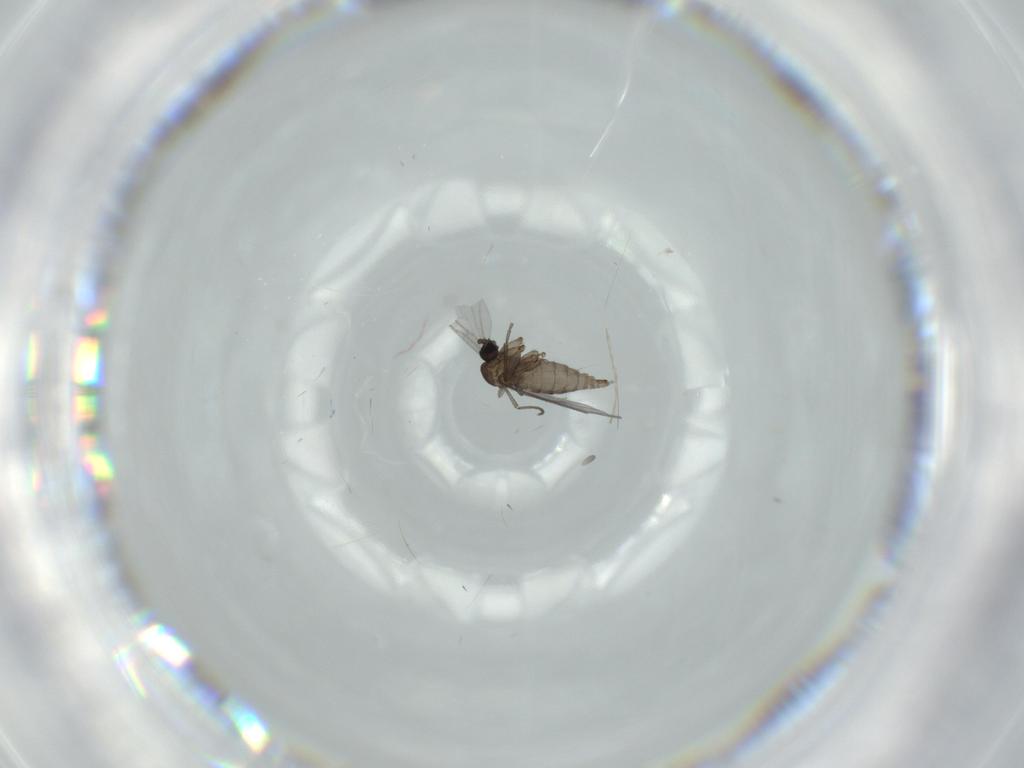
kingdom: Animalia
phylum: Arthropoda
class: Insecta
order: Diptera
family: Sciaridae
